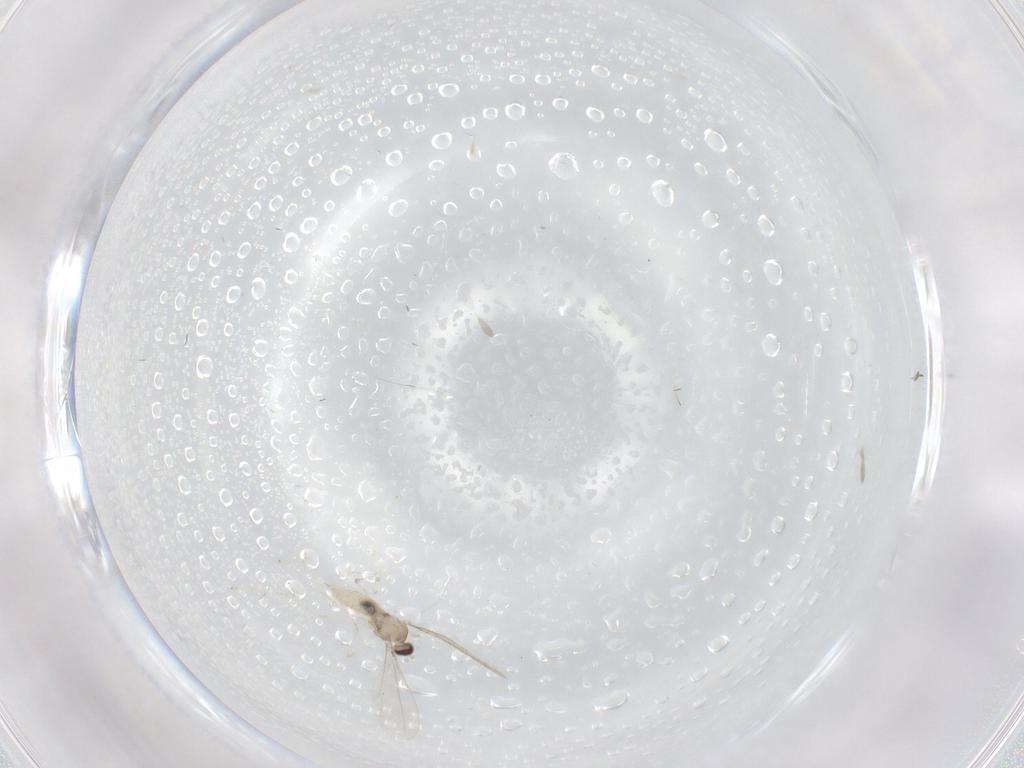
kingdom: Animalia
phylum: Arthropoda
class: Insecta
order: Diptera
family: Cecidomyiidae
